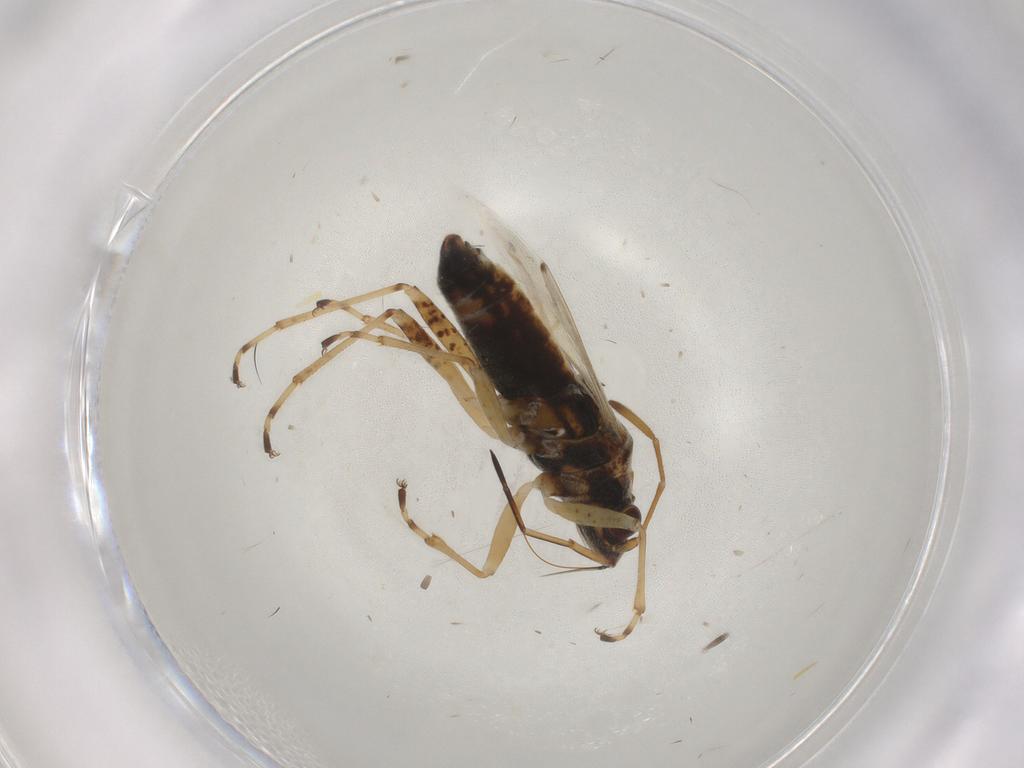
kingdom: Animalia
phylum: Arthropoda
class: Insecta
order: Hemiptera
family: Lygaeidae
